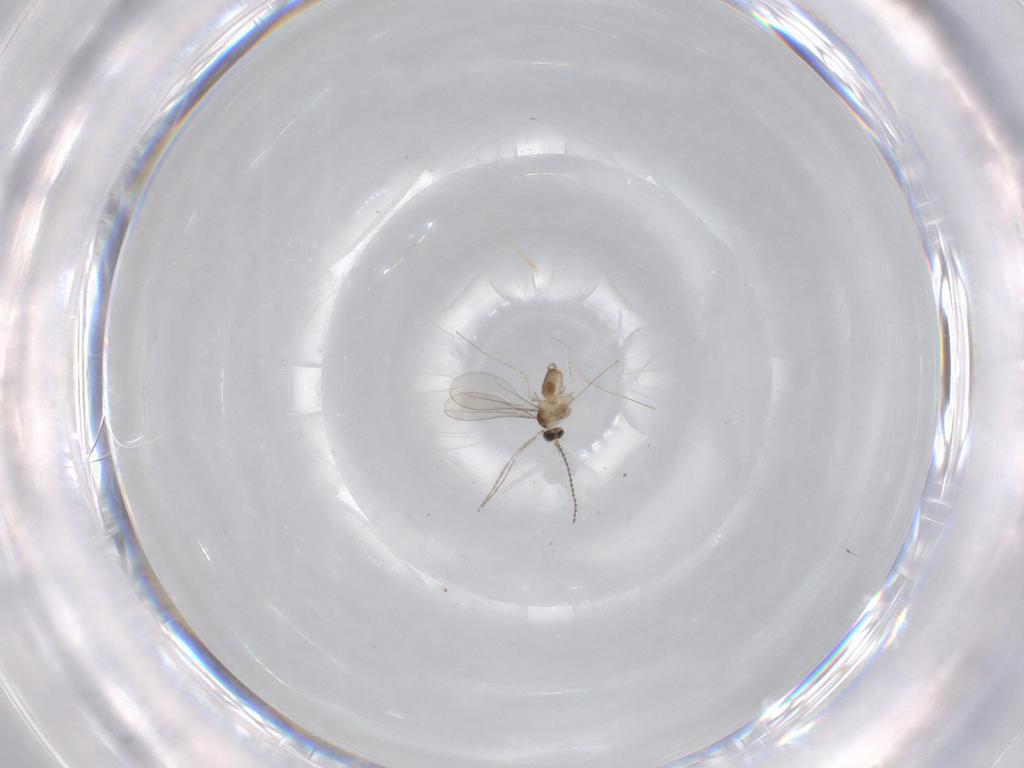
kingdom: Animalia
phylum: Arthropoda
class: Insecta
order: Diptera
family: Cecidomyiidae
